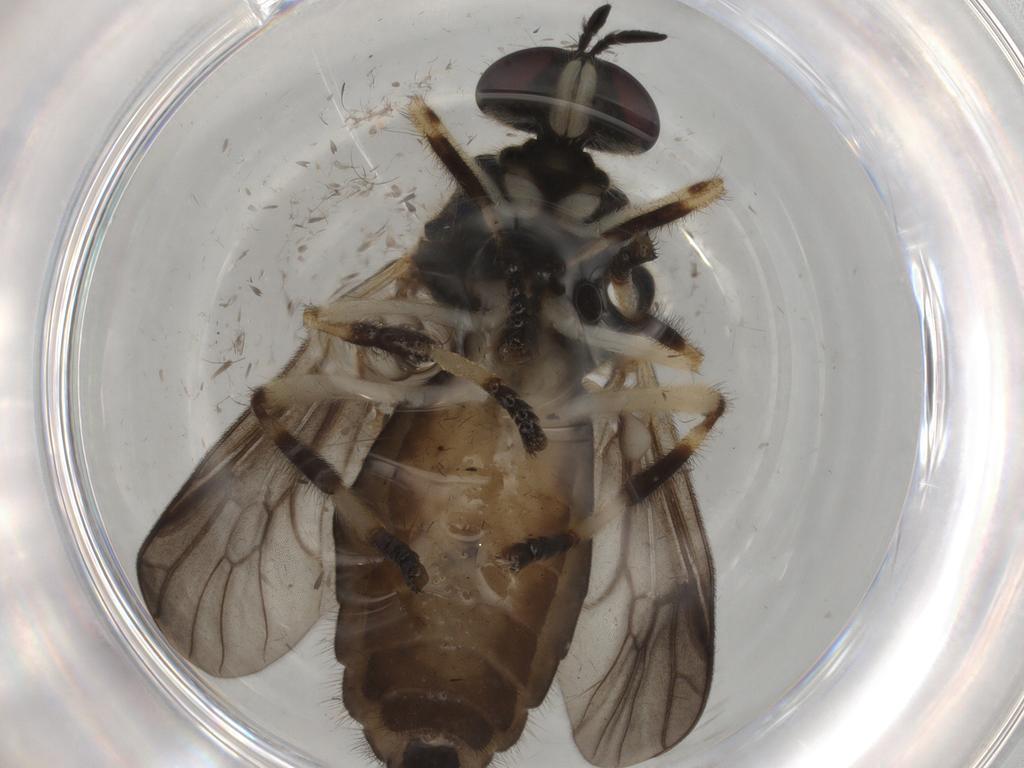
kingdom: Animalia
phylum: Arthropoda
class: Insecta
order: Diptera
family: Stratiomyidae
